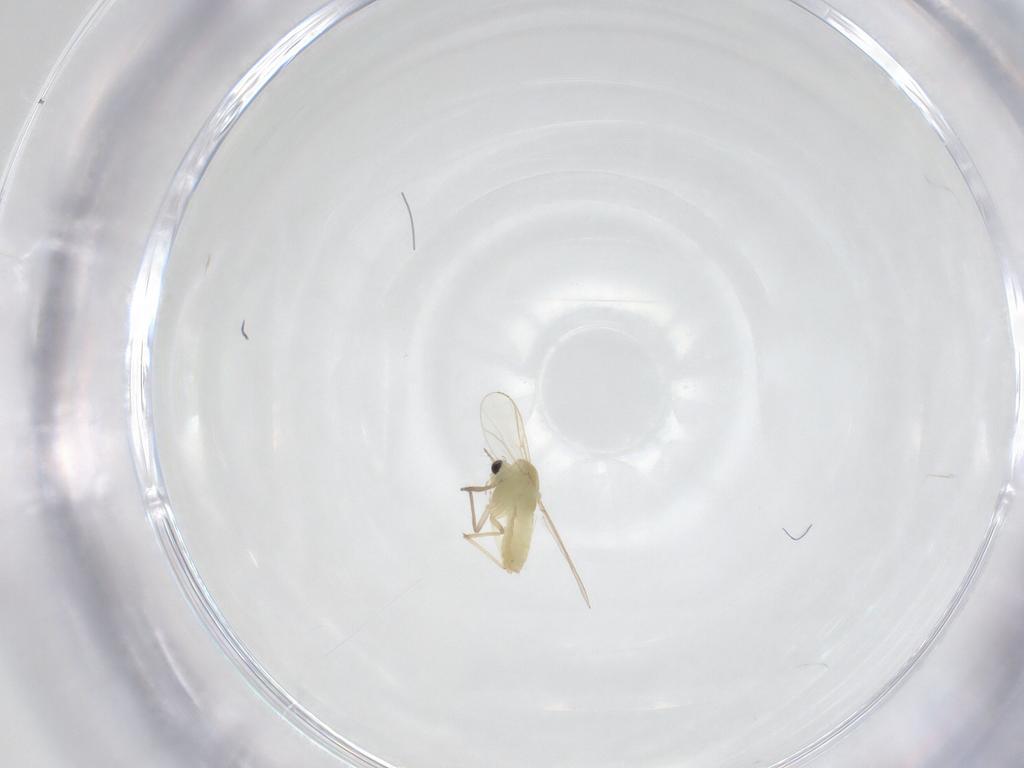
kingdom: Animalia
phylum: Arthropoda
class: Insecta
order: Diptera
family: Chironomidae
